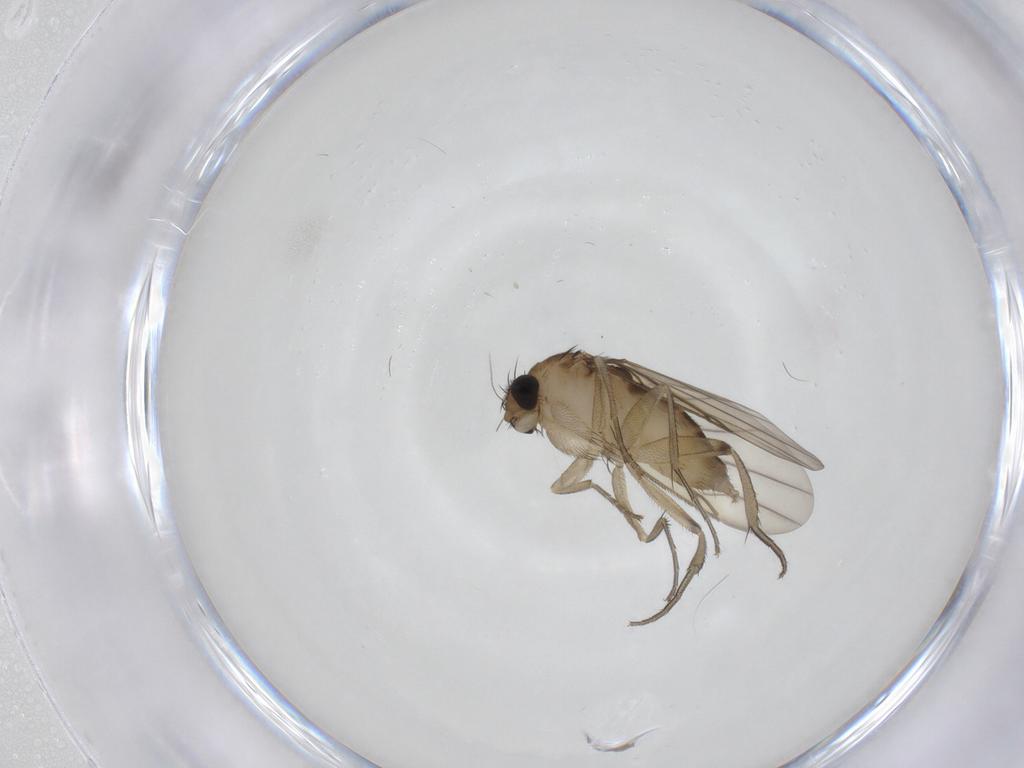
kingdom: Animalia
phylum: Arthropoda
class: Insecta
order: Diptera
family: Phoridae
